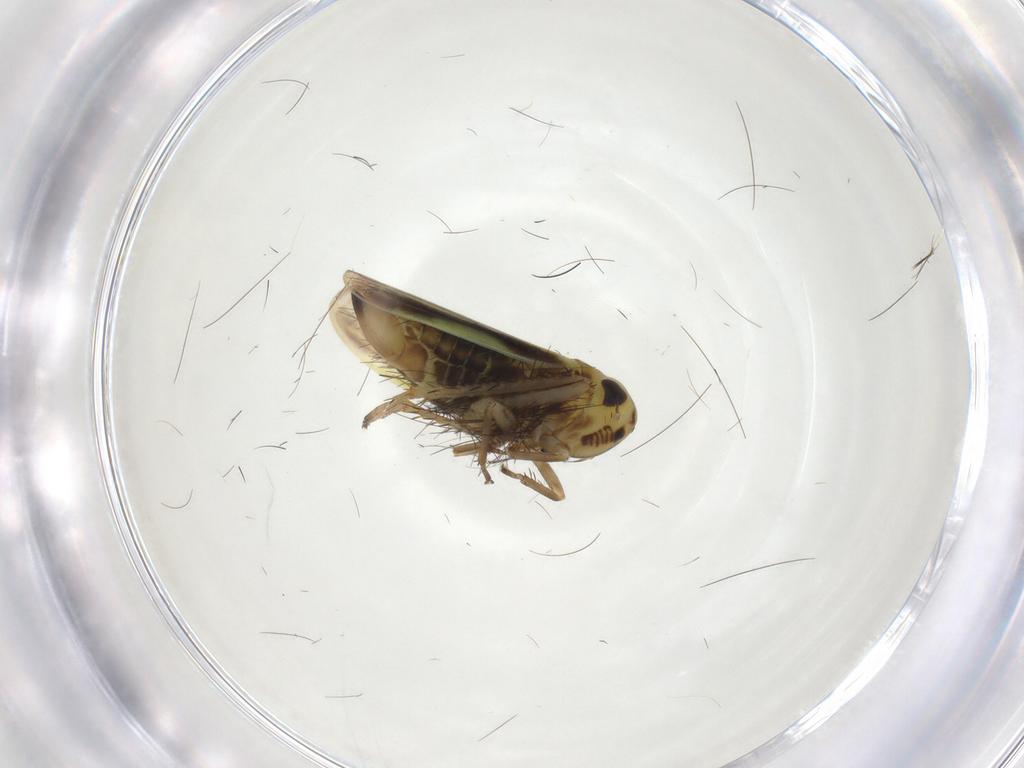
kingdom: Animalia
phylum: Arthropoda
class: Insecta
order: Hemiptera
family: Cicadellidae
